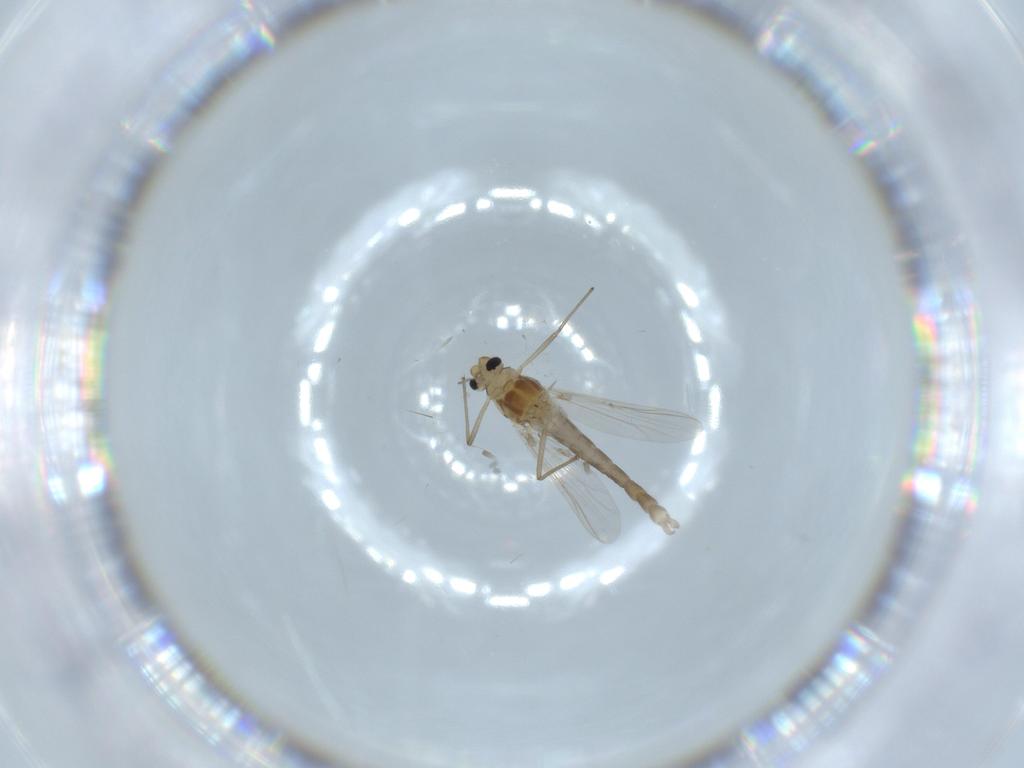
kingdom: Animalia
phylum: Arthropoda
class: Insecta
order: Diptera
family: Chironomidae
